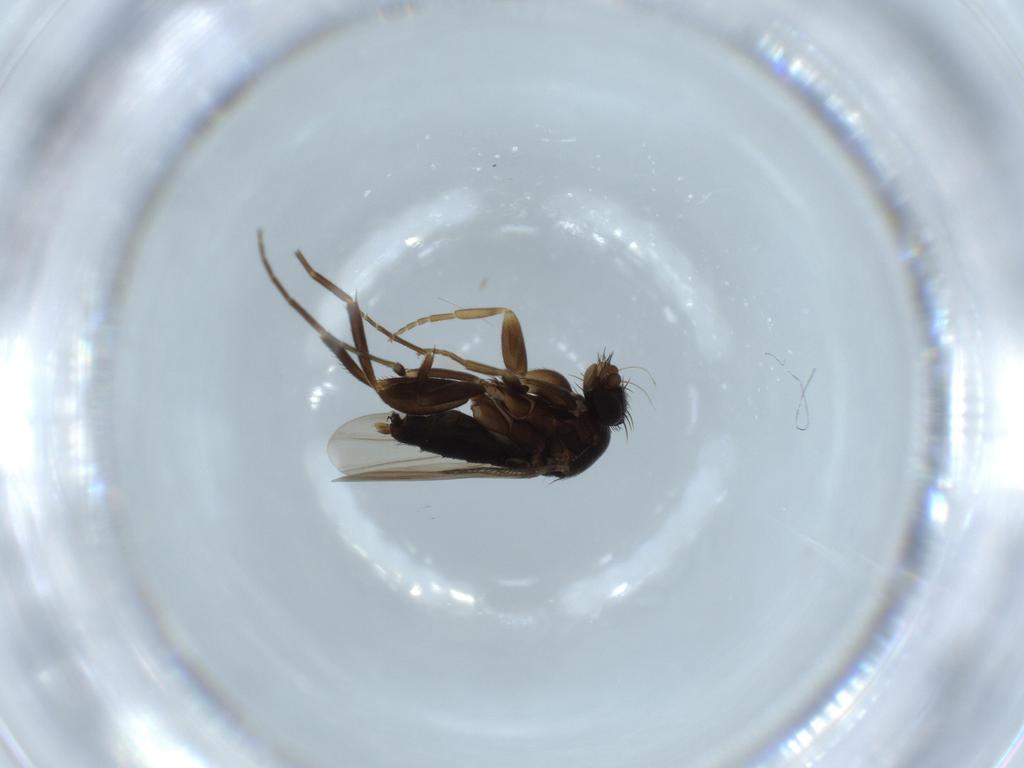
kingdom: Animalia
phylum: Arthropoda
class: Insecta
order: Diptera
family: Phoridae
